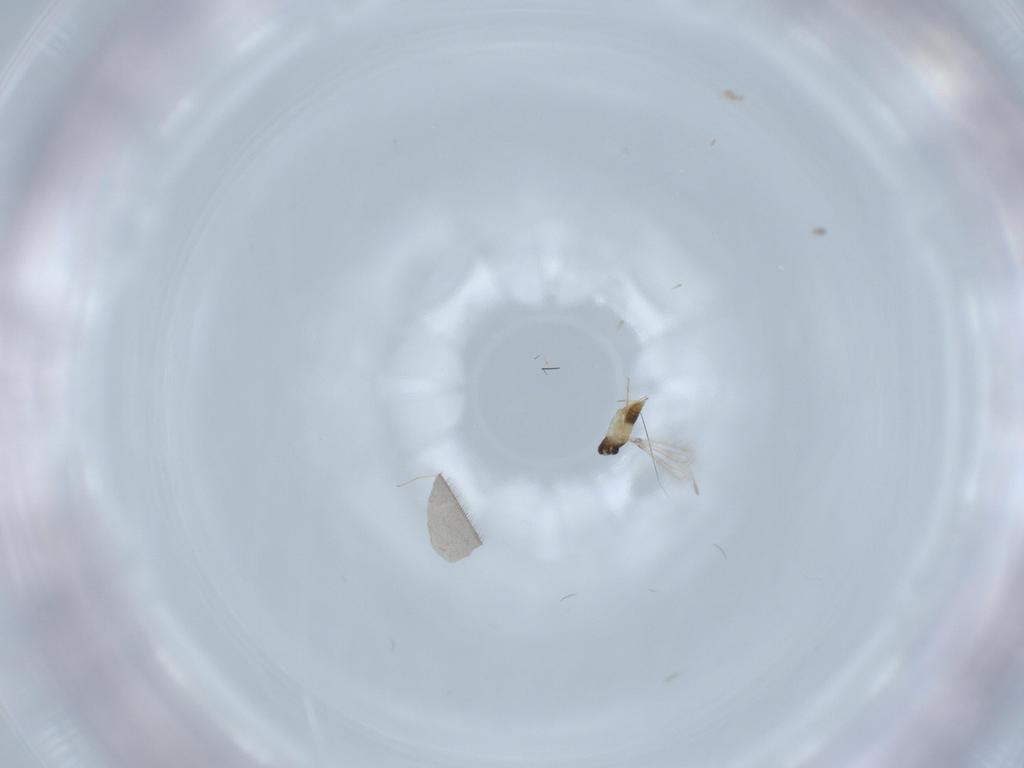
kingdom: Animalia
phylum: Arthropoda
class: Insecta
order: Hymenoptera
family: Mymaridae
